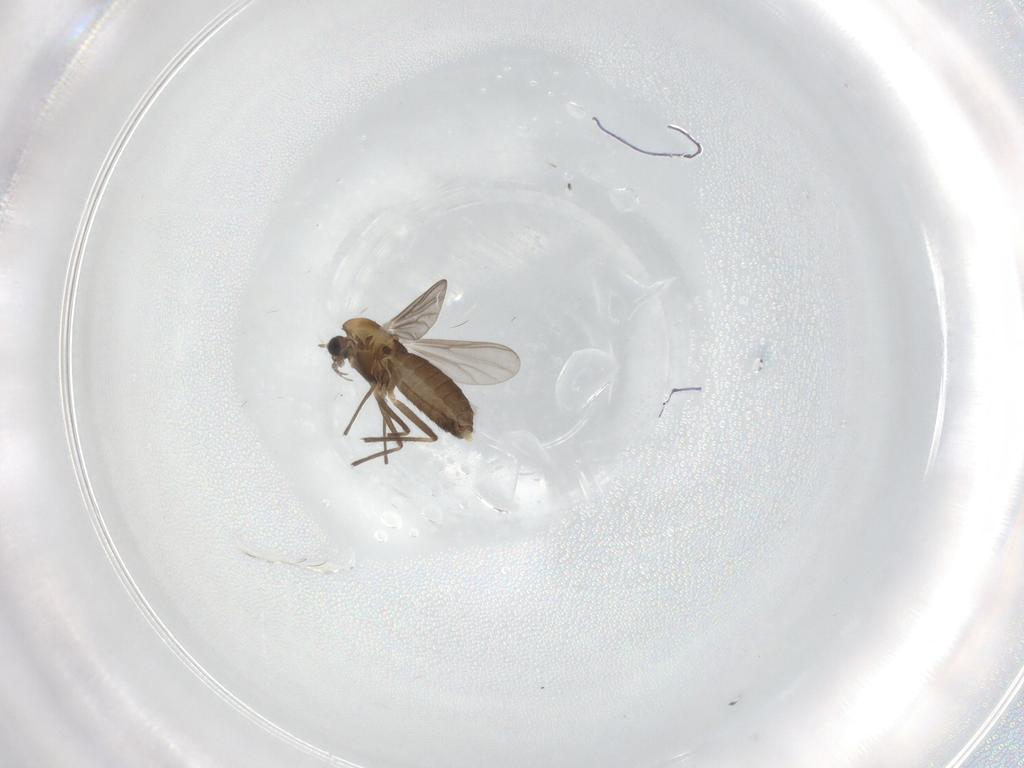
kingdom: Animalia
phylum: Arthropoda
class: Insecta
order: Diptera
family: Chironomidae
